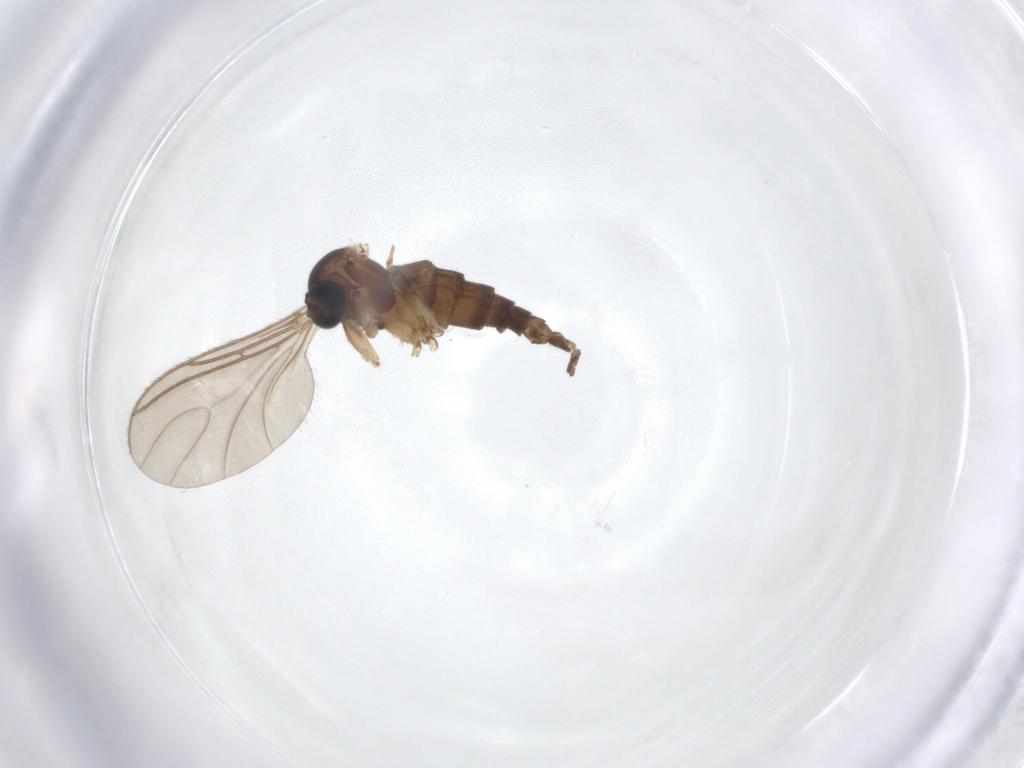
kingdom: Animalia
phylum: Arthropoda
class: Insecta
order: Diptera
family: Sciaridae
